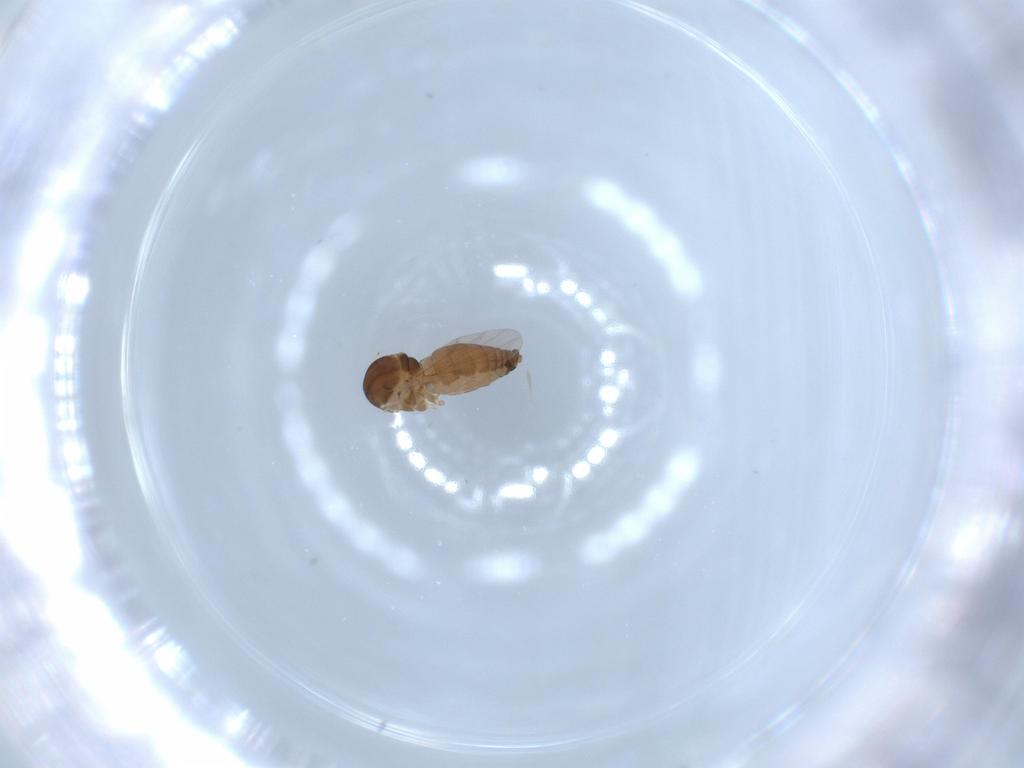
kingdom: Animalia
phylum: Arthropoda
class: Insecta
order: Diptera
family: Ceratopogonidae
